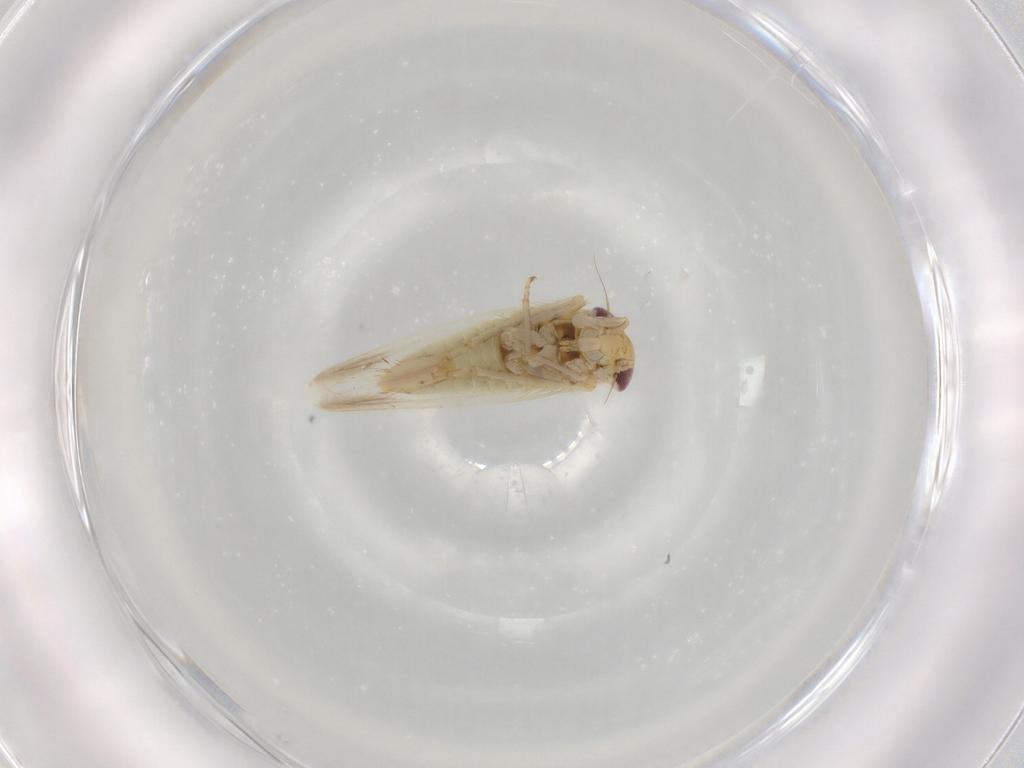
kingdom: Animalia
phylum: Arthropoda
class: Insecta
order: Hemiptera
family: Cicadellidae
